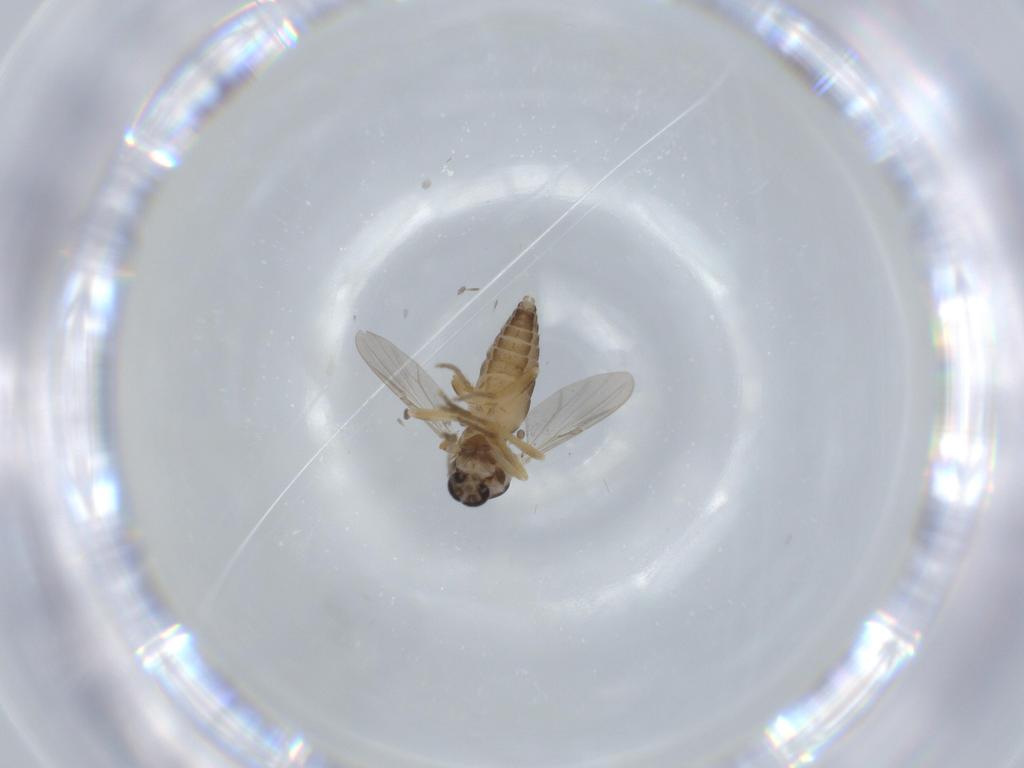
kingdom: Animalia
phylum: Arthropoda
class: Insecta
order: Diptera
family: Ceratopogonidae
